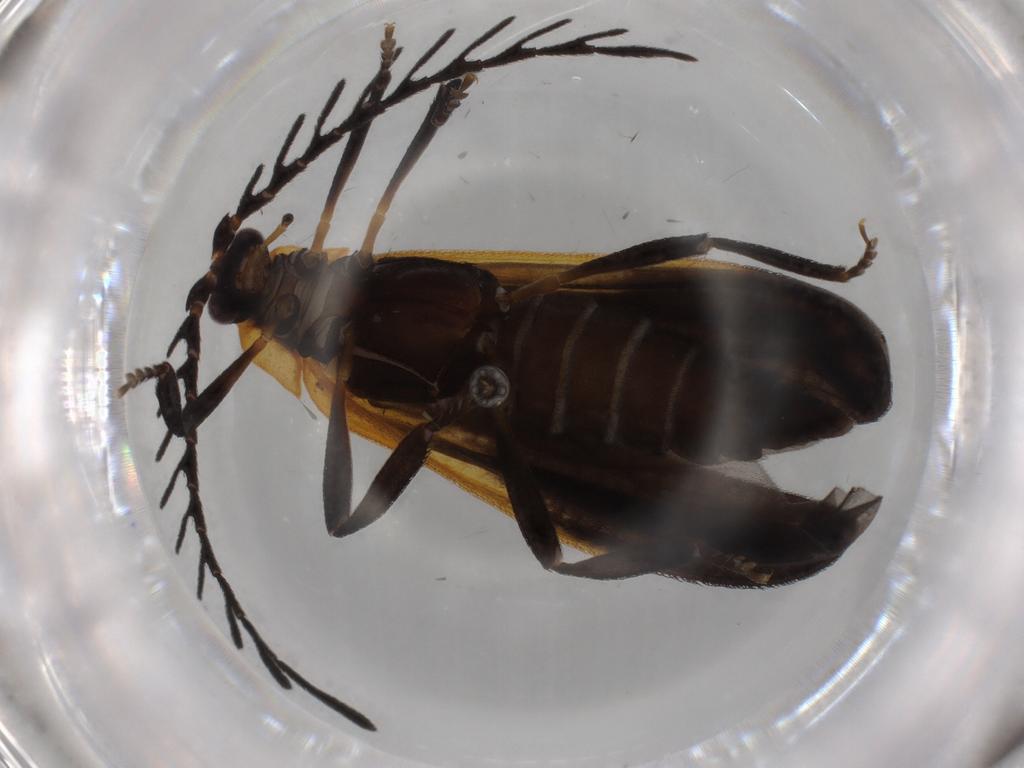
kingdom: Animalia
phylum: Arthropoda
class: Insecta
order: Coleoptera
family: Lycidae
